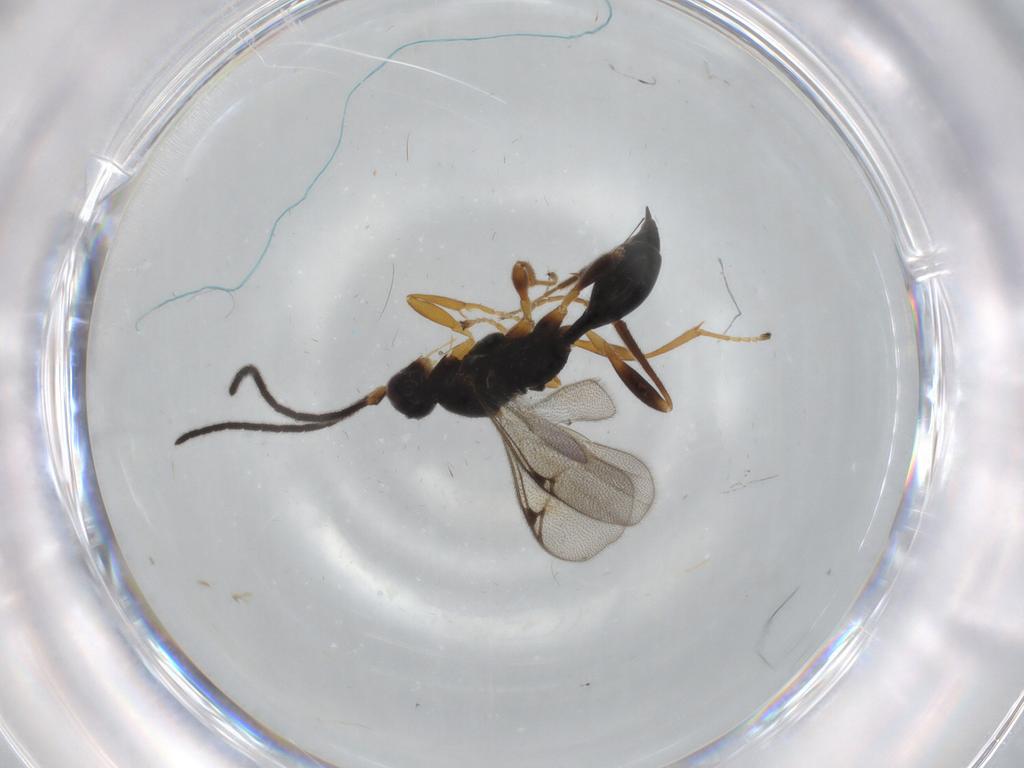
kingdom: Animalia
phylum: Arthropoda
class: Insecta
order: Hymenoptera
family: Proctotrupidae
